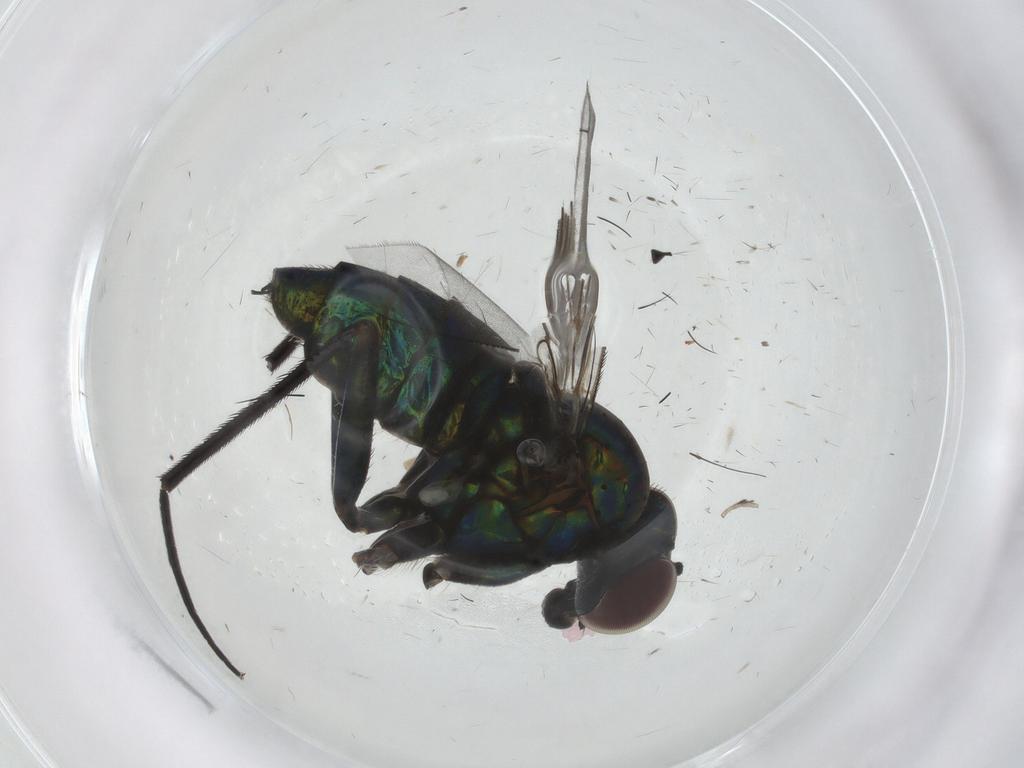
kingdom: Animalia
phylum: Arthropoda
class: Insecta
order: Diptera
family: Dolichopodidae
